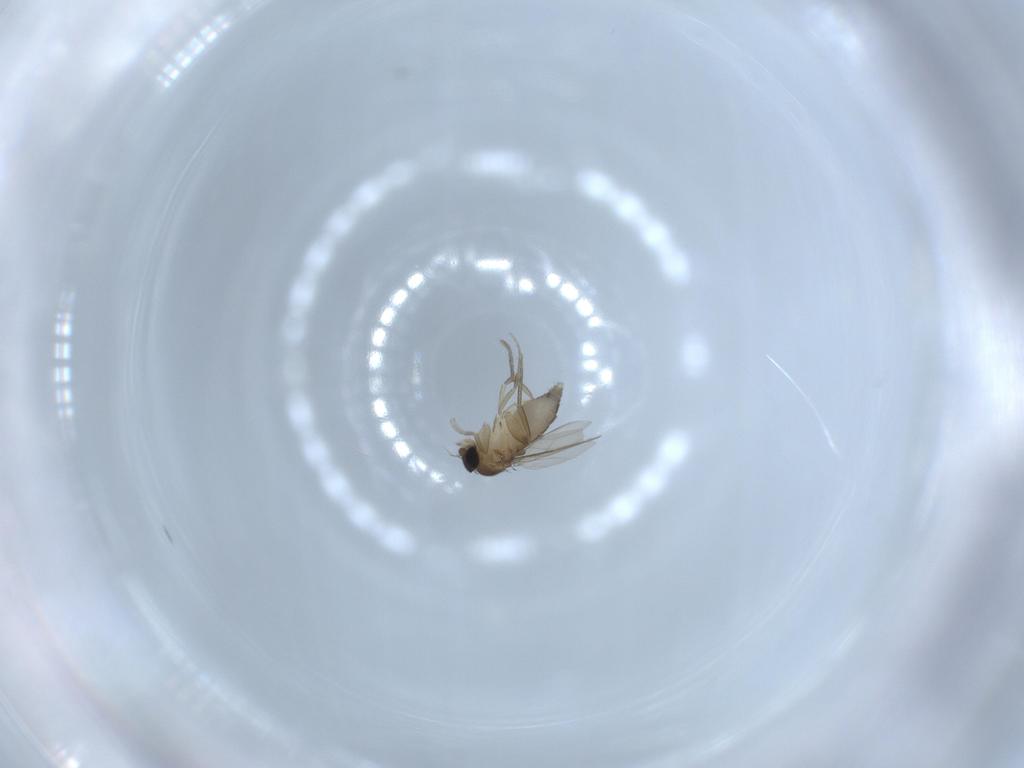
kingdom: Animalia
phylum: Arthropoda
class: Insecta
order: Diptera
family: Phoridae
